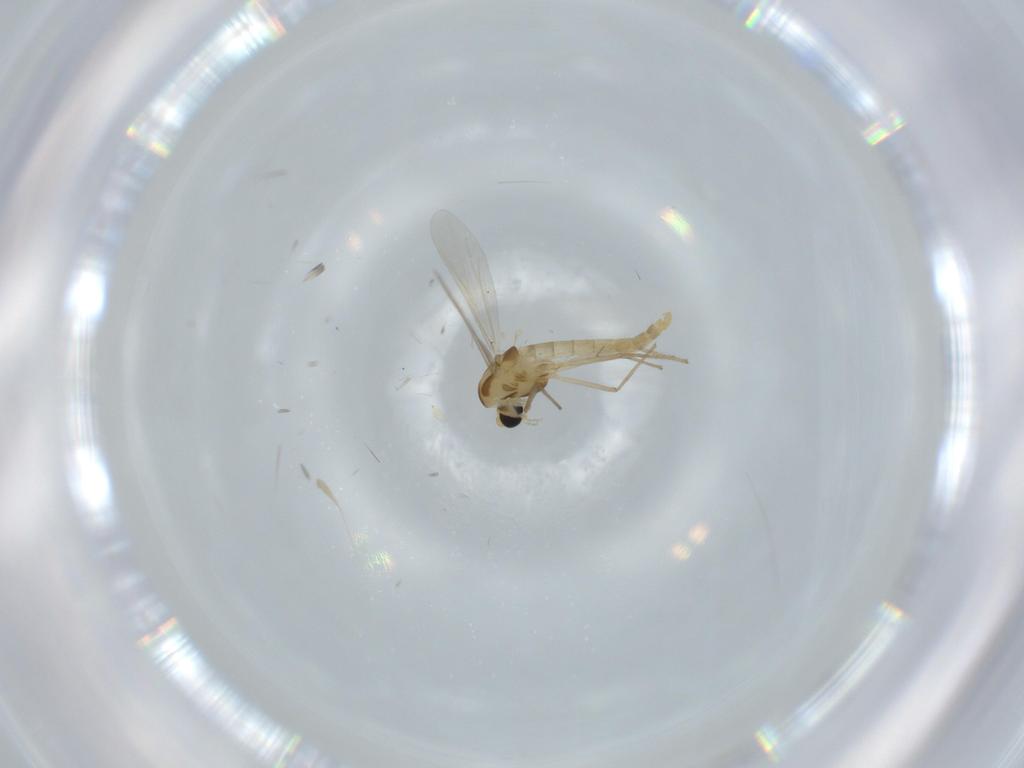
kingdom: Animalia
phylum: Arthropoda
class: Insecta
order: Diptera
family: Chironomidae
